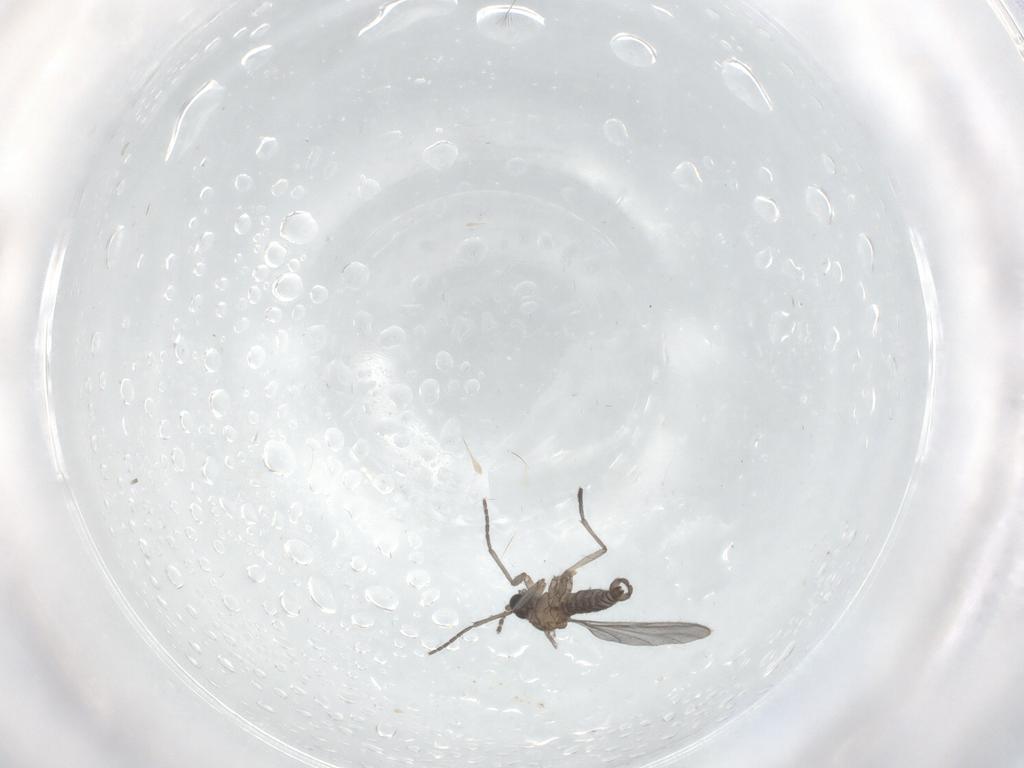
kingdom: Animalia
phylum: Arthropoda
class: Insecta
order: Diptera
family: Sciaridae
